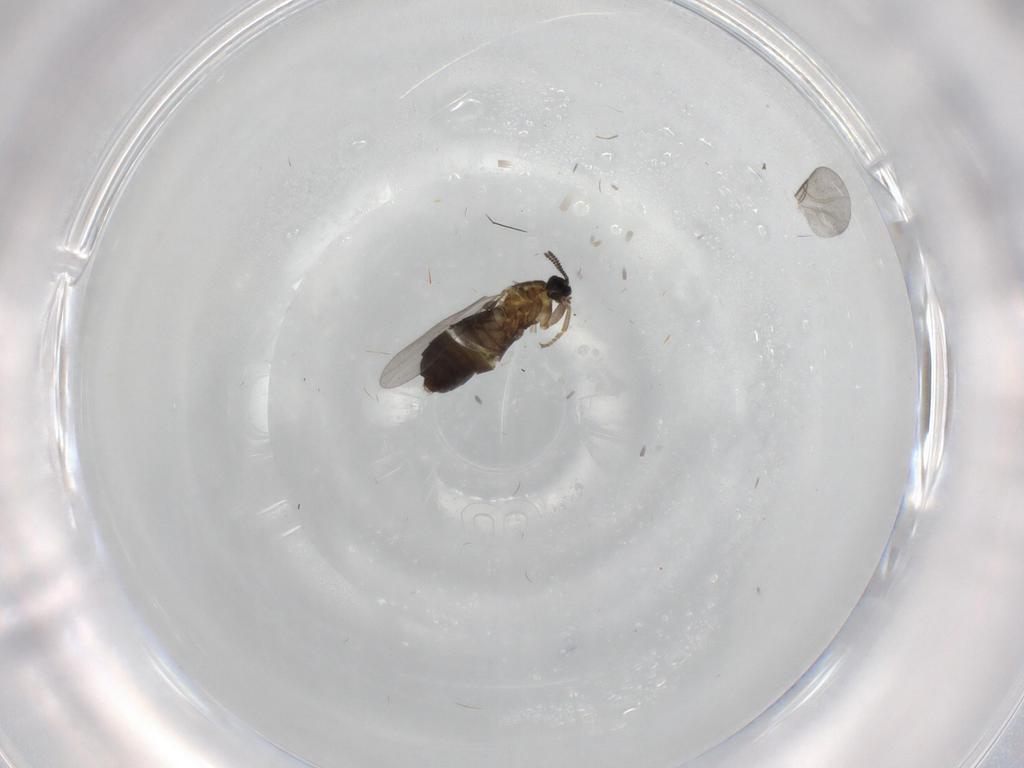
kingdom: Animalia
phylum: Arthropoda
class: Insecta
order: Diptera
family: Scatopsidae
